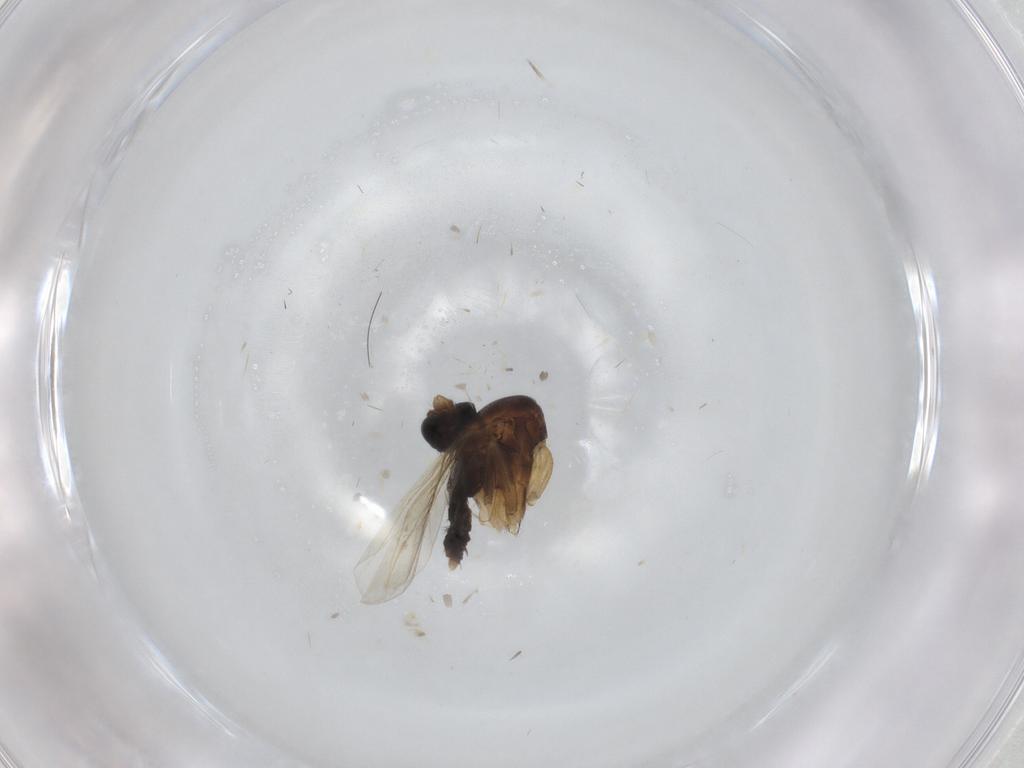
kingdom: Animalia
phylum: Arthropoda
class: Insecta
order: Diptera
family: Phoridae
